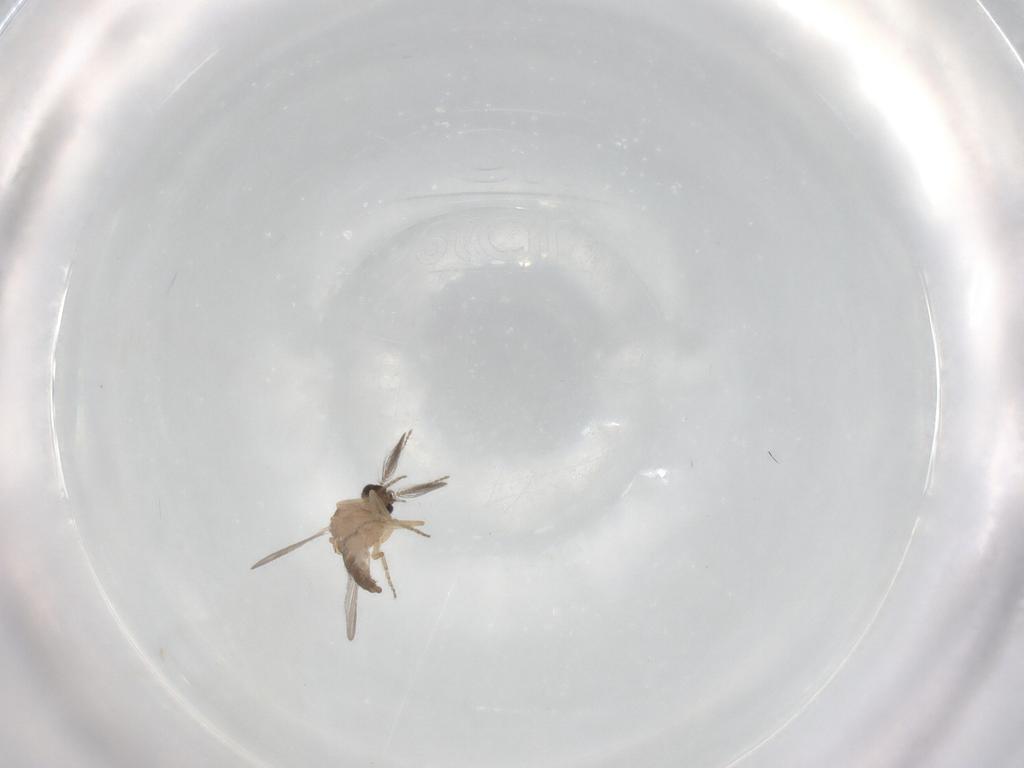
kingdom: Animalia
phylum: Arthropoda
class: Insecta
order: Diptera
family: Ceratopogonidae
